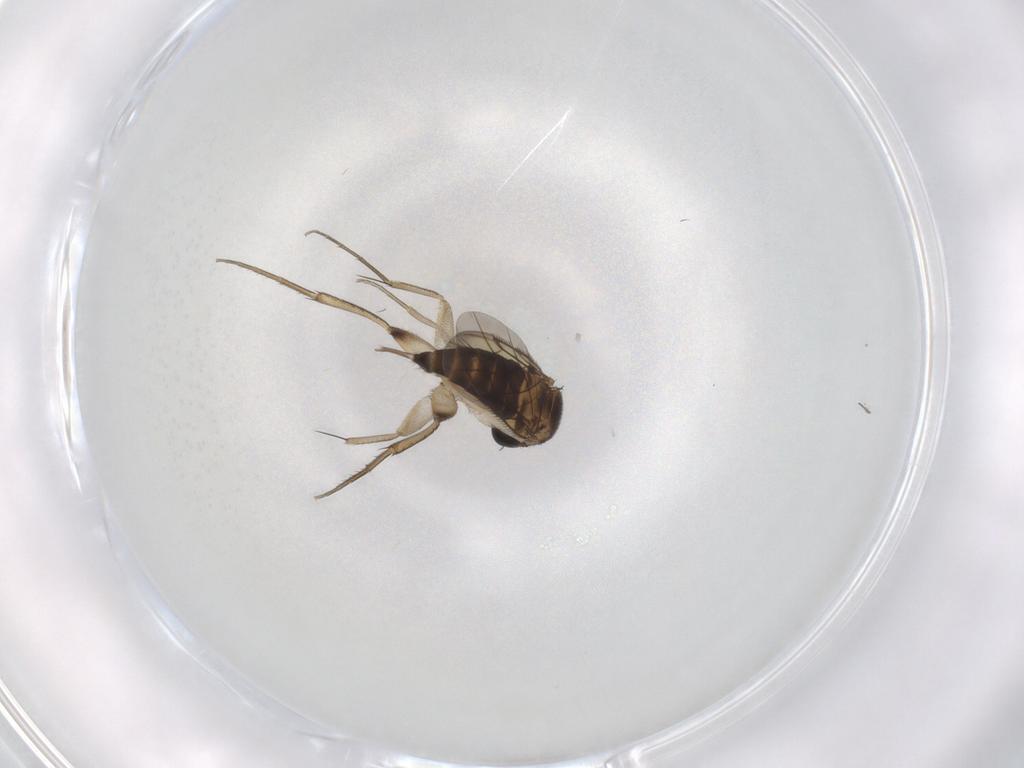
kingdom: Animalia
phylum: Arthropoda
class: Insecta
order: Diptera
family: Phoridae
